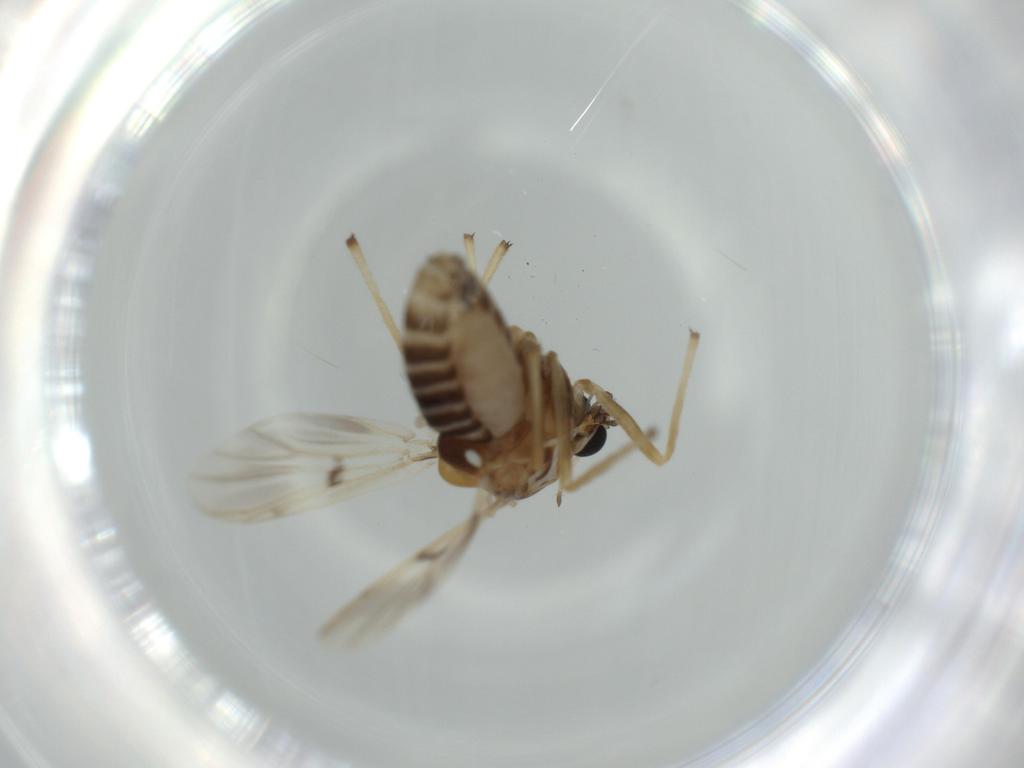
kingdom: Animalia
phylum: Arthropoda
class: Insecta
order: Diptera
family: Chironomidae
